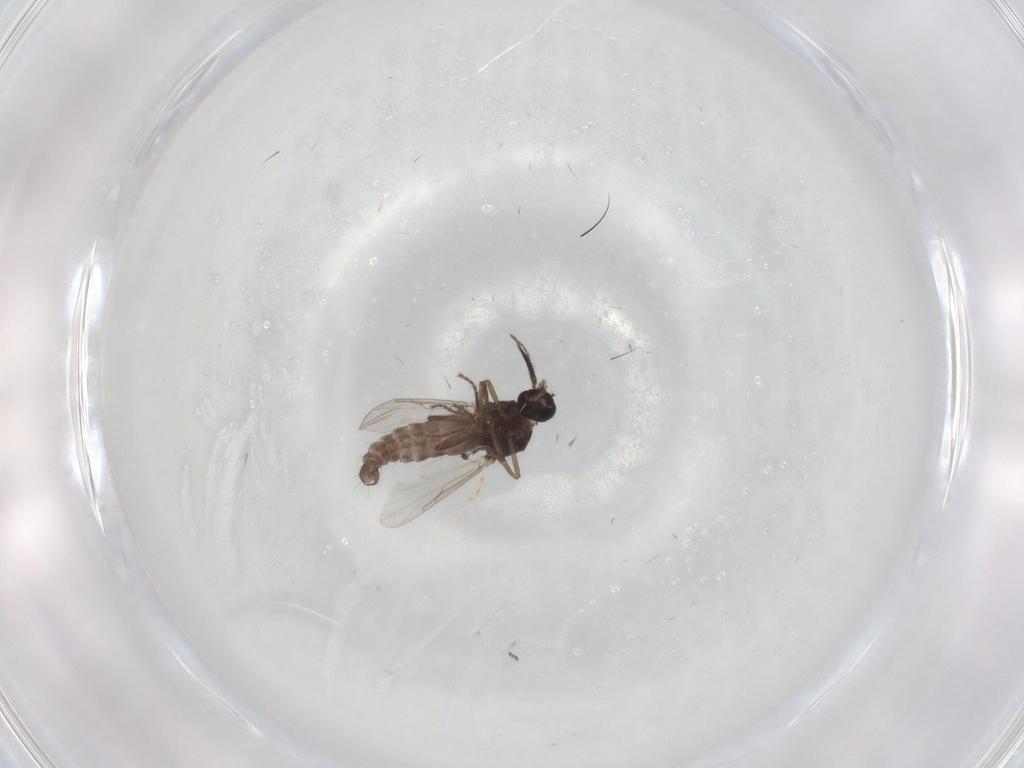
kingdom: Animalia
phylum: Arthropoda
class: Insecta
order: Diptera
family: Ceratopogonidae
